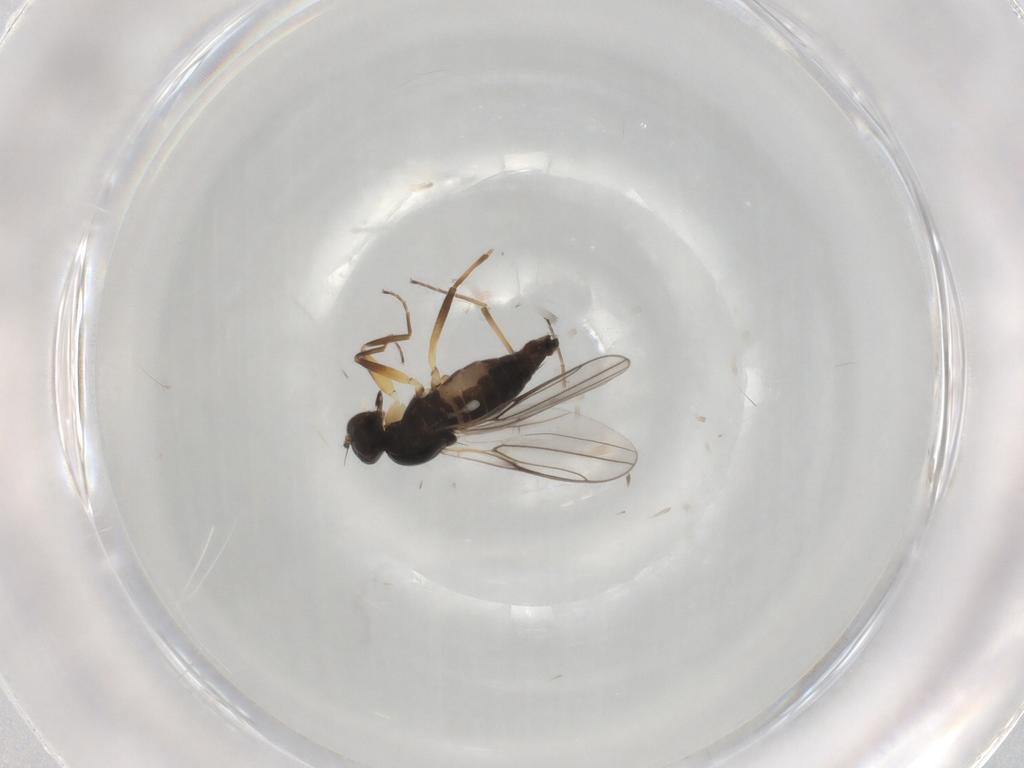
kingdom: Animalia
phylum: Arthropoda
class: Insecta
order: Diptera
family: Hybotidae
